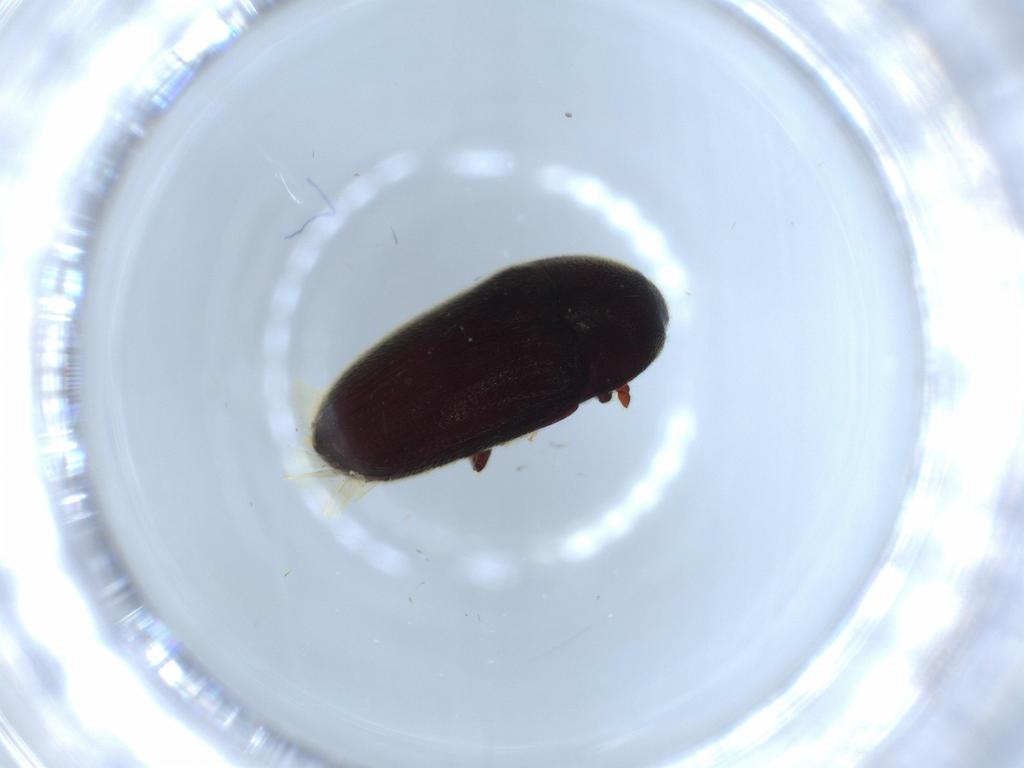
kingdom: Animalia
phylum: Arthropoda
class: Insecta
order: Coleoptera
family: Throscidae
